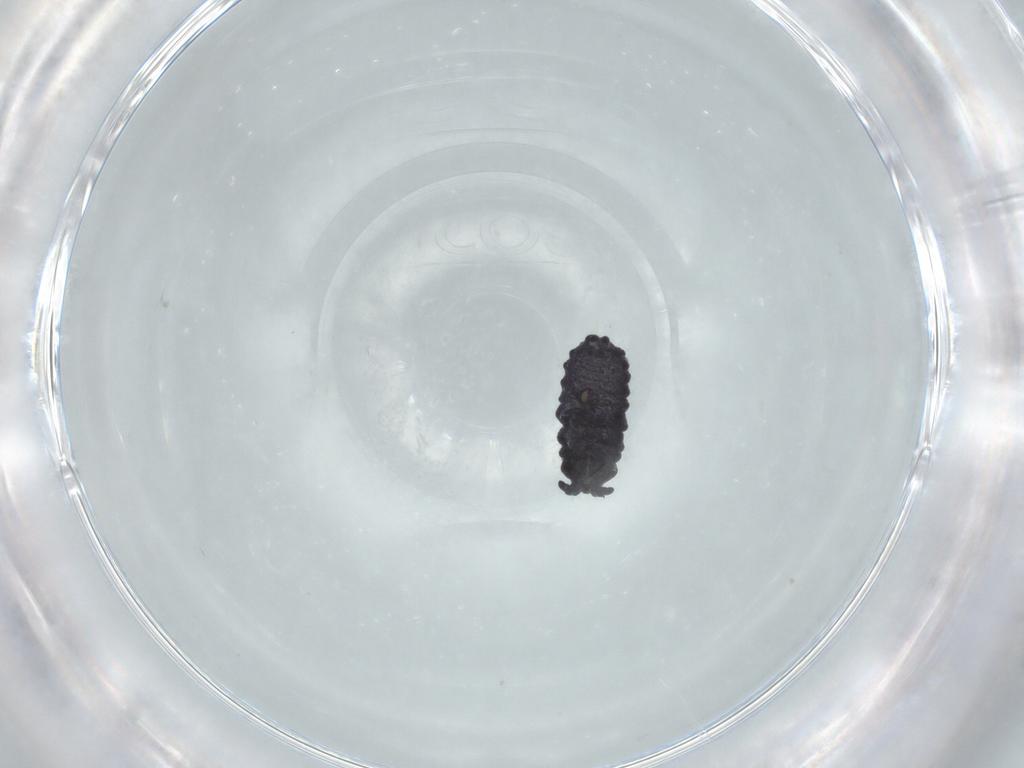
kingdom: Animalia
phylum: Arthropoda
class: Collembola
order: Poduromorpha
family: Neanuridae
